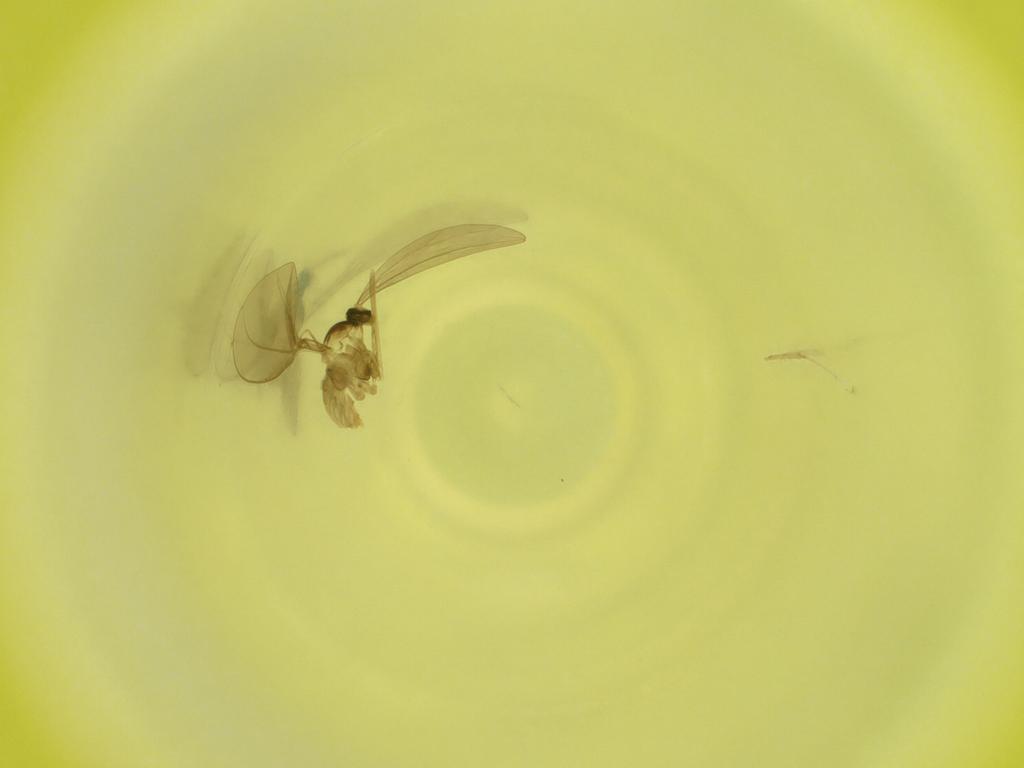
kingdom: Animalia
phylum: Arthropoda
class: Insecta
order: Diptera
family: Cecidomyiidae
